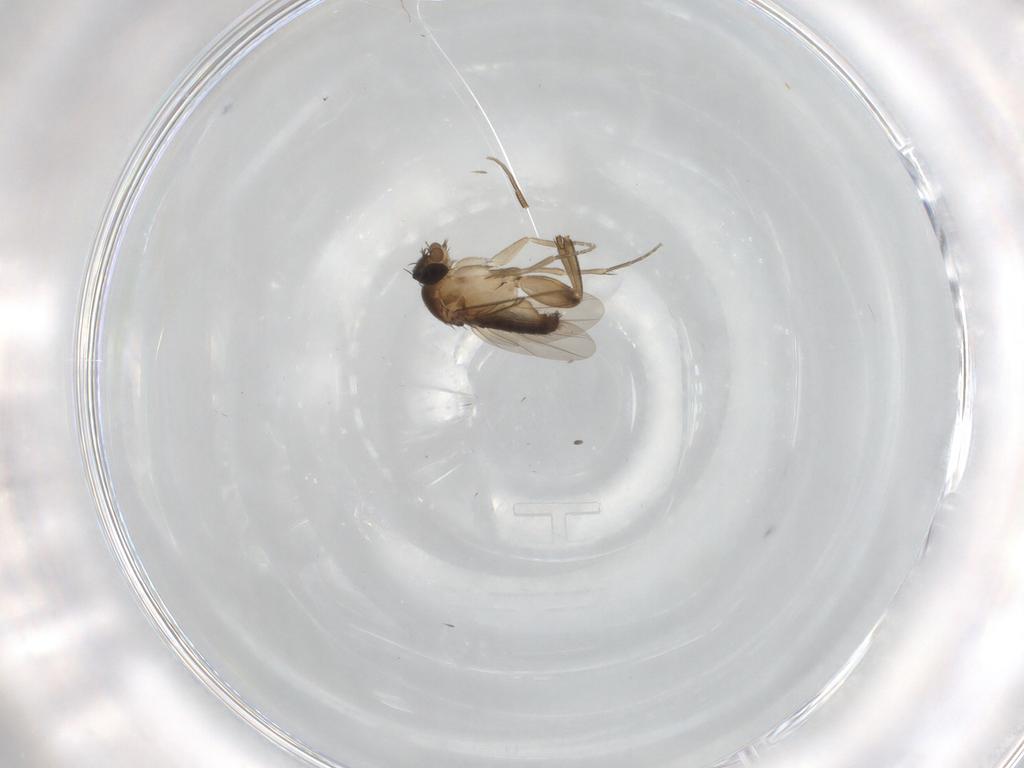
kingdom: Animalia
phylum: Arthropoda
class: Insecta
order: Diptera
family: Phoridae
